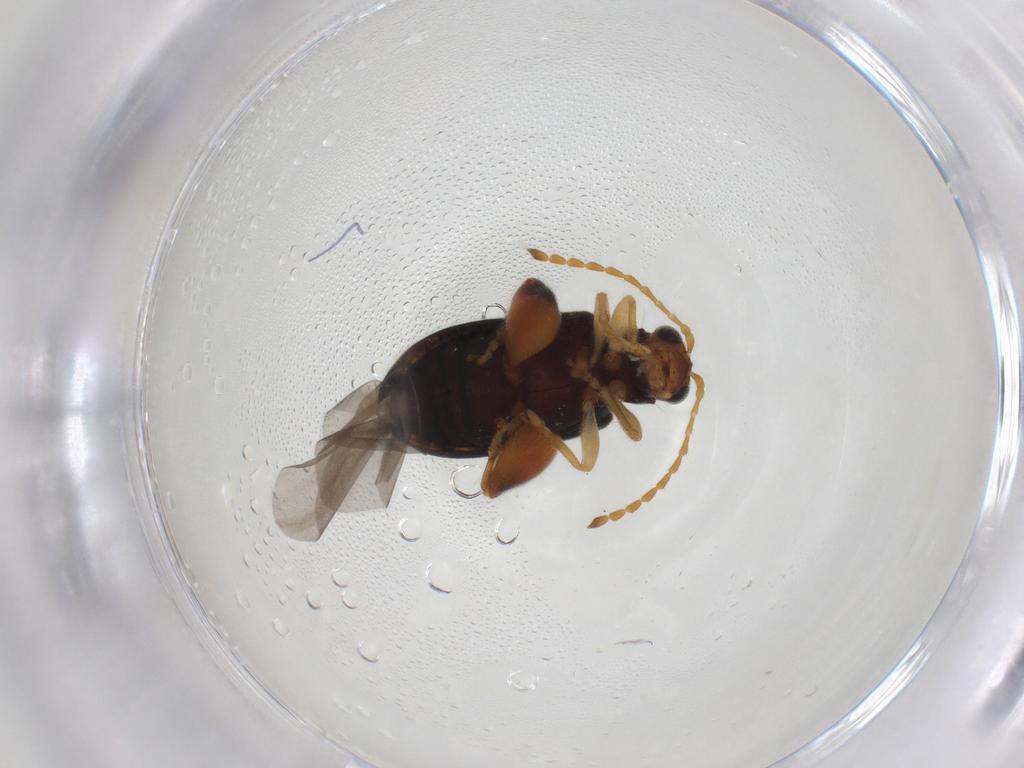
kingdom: Animalia
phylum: Arthropoda
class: Insecta
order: Coleoptera
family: Chrysomelidae
